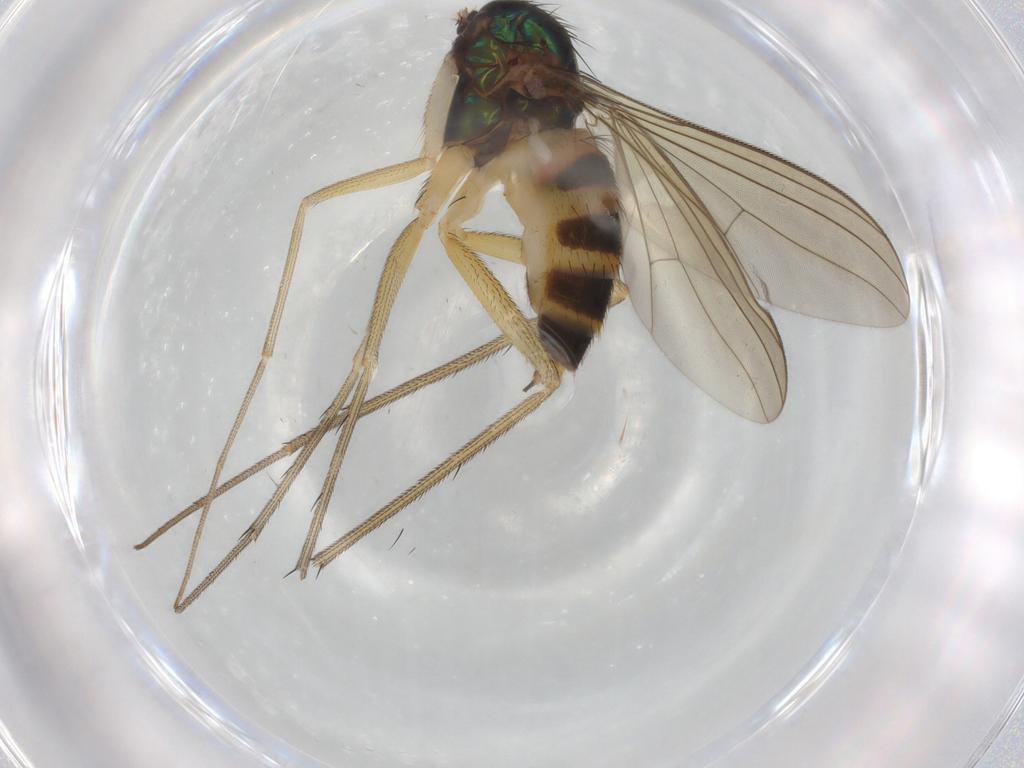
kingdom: Animalia
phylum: Arthropoda
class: Insecta
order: Diptera
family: Dolichopodidae
